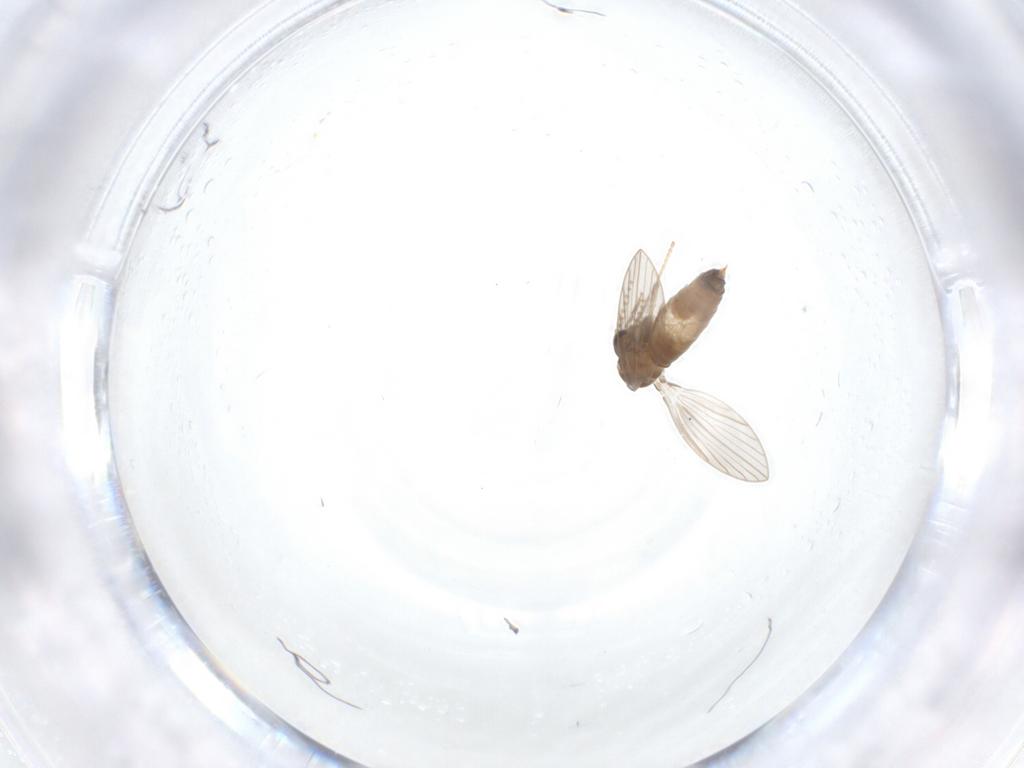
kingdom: Animalia
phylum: Arthropoda
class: Insecta
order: Diptera
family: Psychodidae
